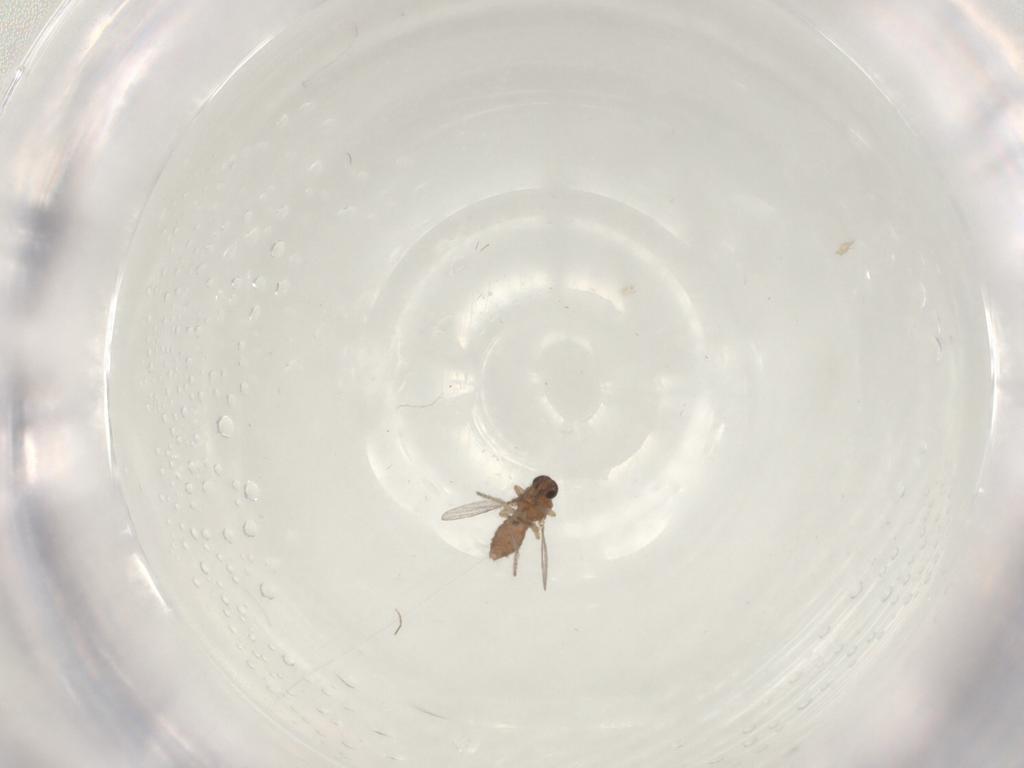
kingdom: Animalia
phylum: Arthropoda
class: Insecta
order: Diptera
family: Ceratopogonidae
